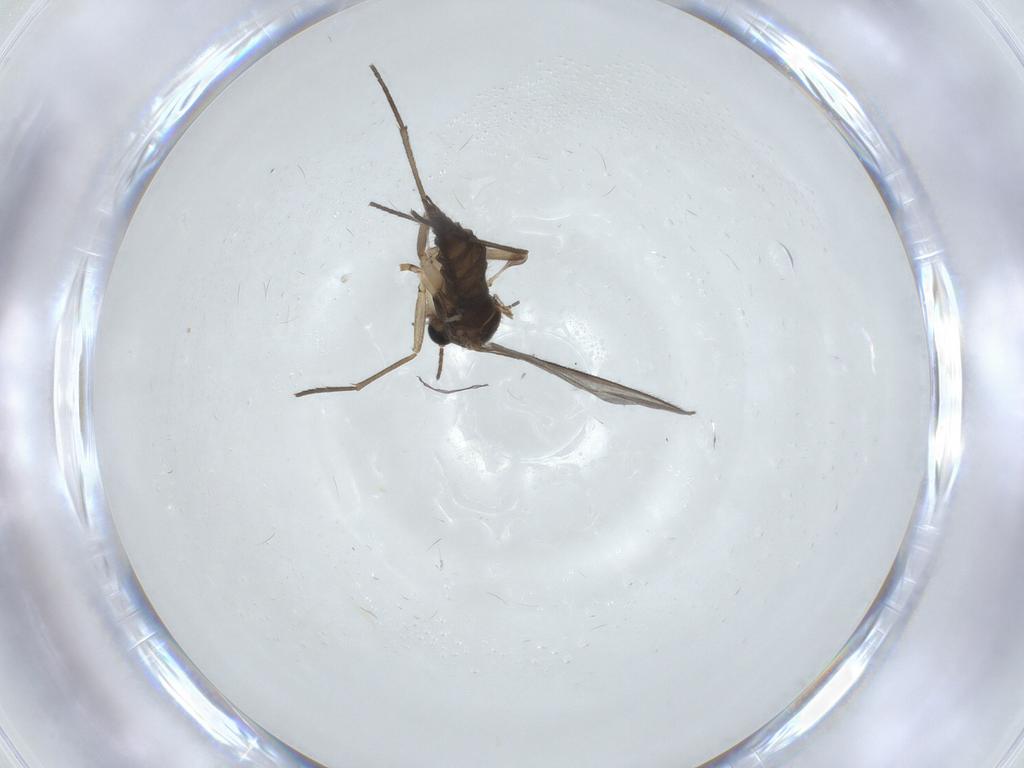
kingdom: Animalia
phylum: Arthropoda
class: Insecta
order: Diptera
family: Sciaridae
